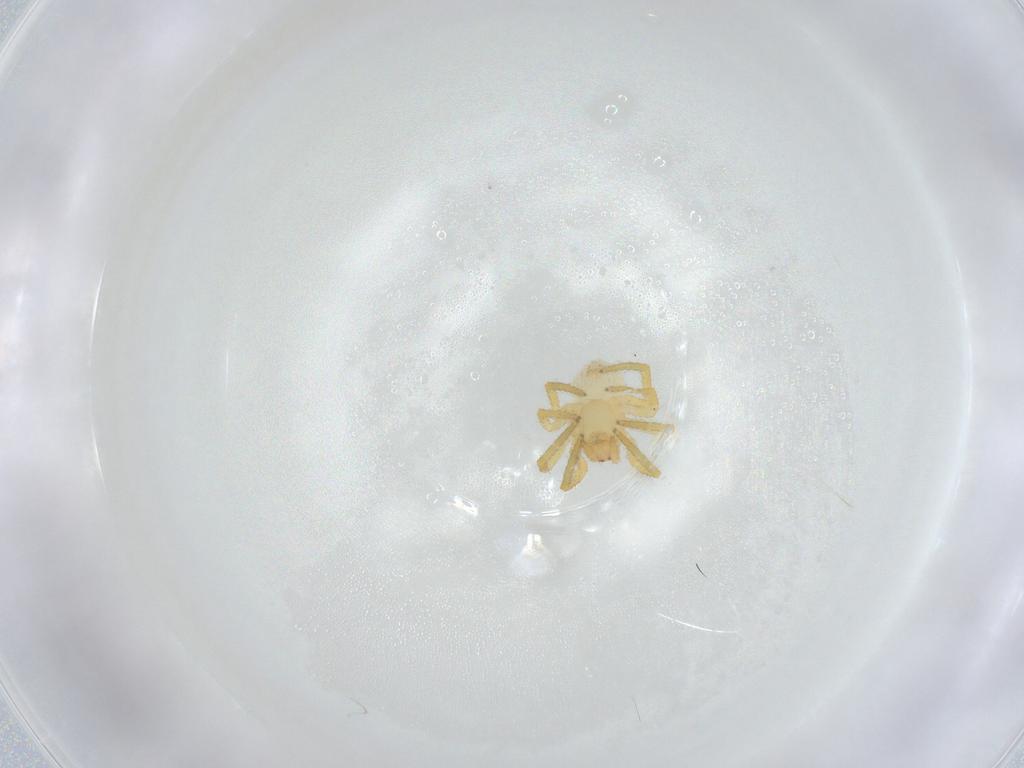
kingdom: Animalia
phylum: Arthropoda
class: Arachnida
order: Araneae
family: Theridiidae
